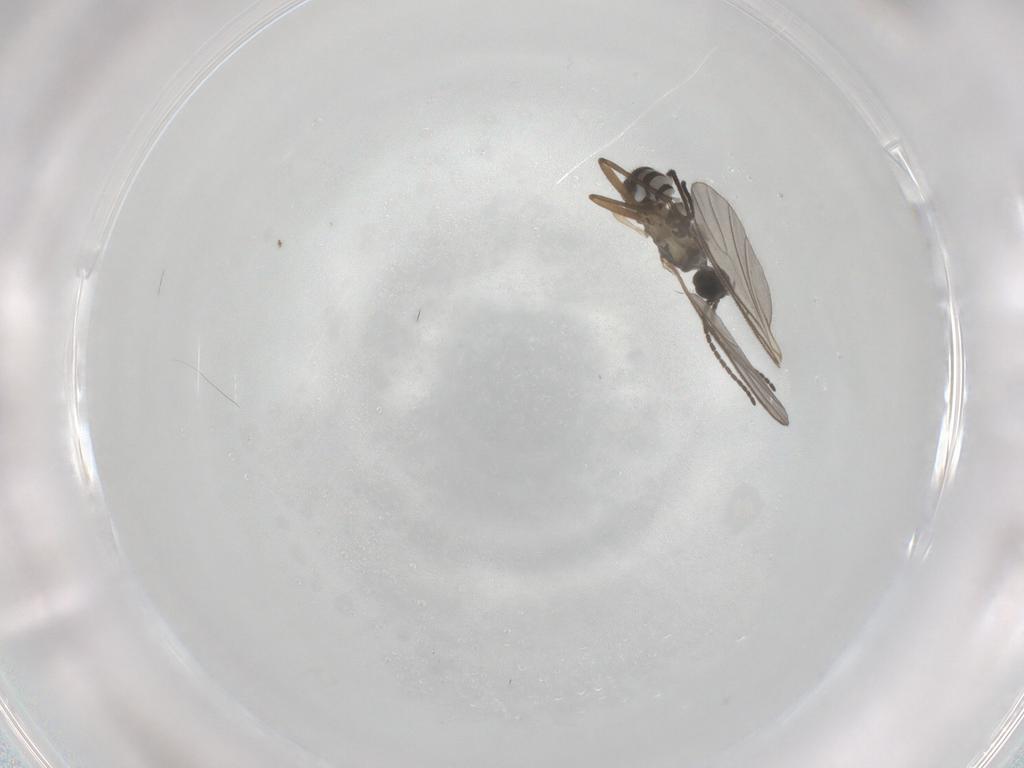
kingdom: Animalia
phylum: Arthropoda
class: Insecta
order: Diptera
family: Sciaridae
